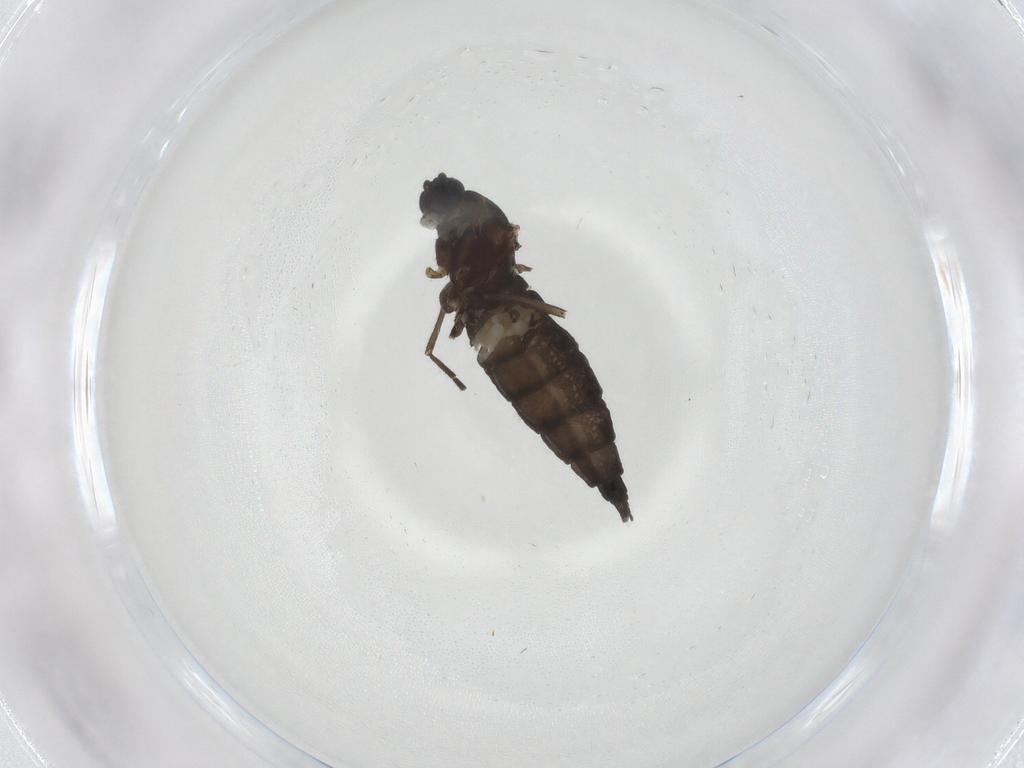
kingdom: Animalia
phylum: Arthropoda
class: Insecta
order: Diptera
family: Sciaridae
